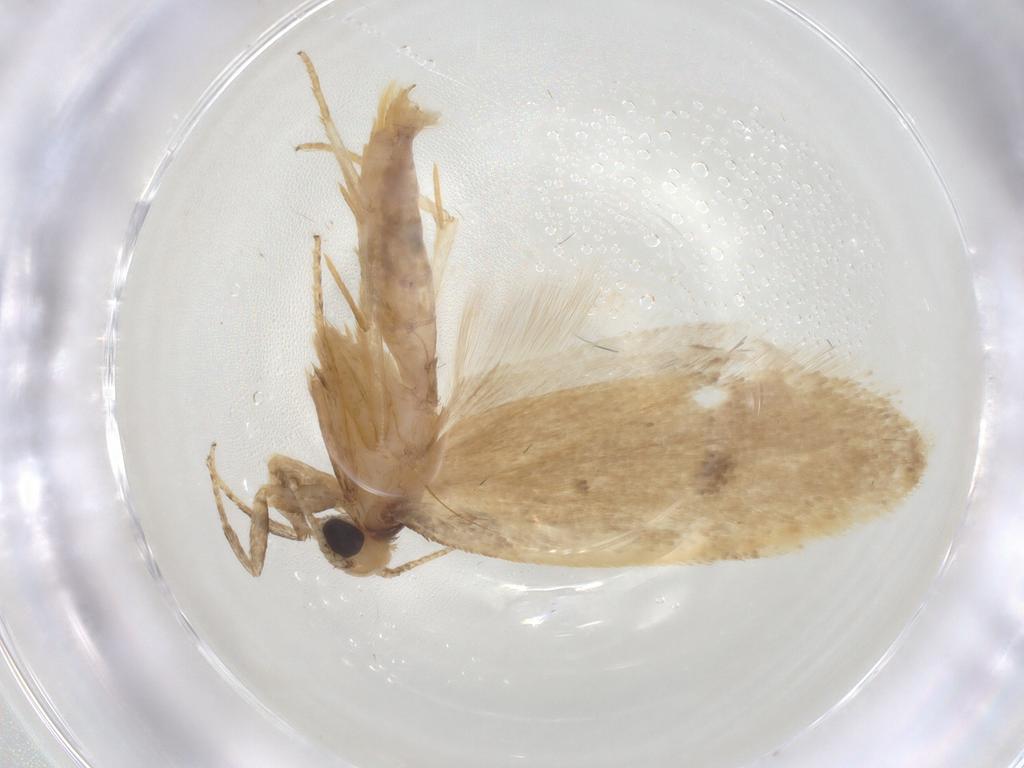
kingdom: Animalia
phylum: Arthropoda
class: Insecta
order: Lepidoptera
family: Depressariidae
